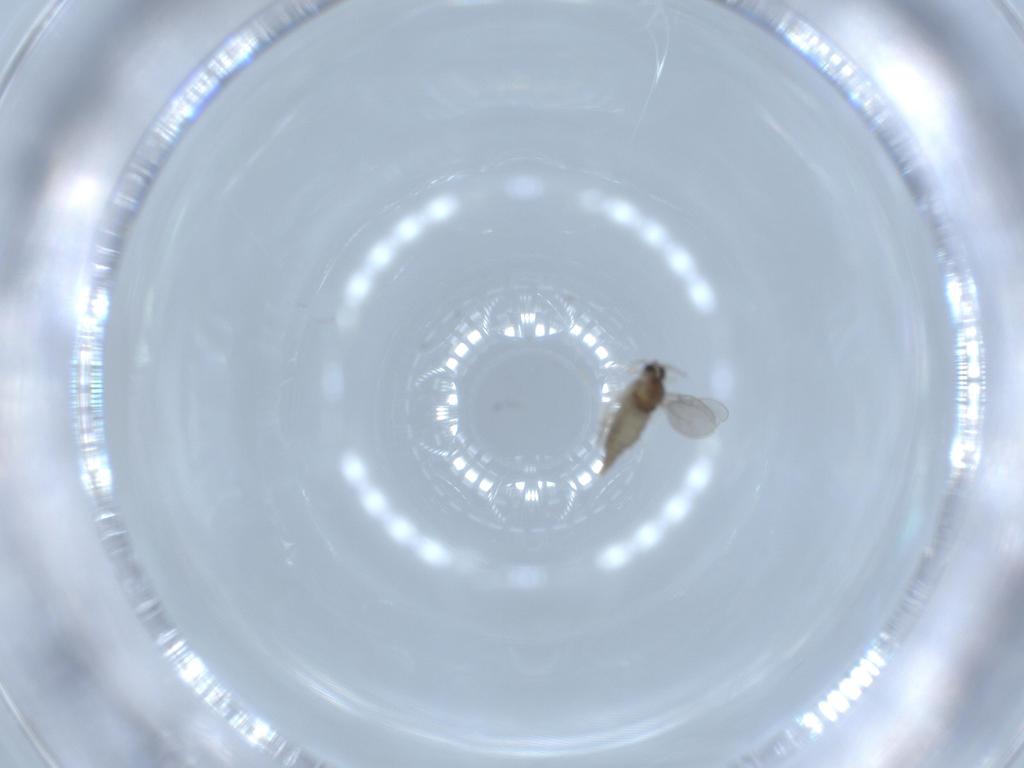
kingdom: Animalia
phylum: Arthropoda
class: Insecta
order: Diptera
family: Cecidomyiidae
